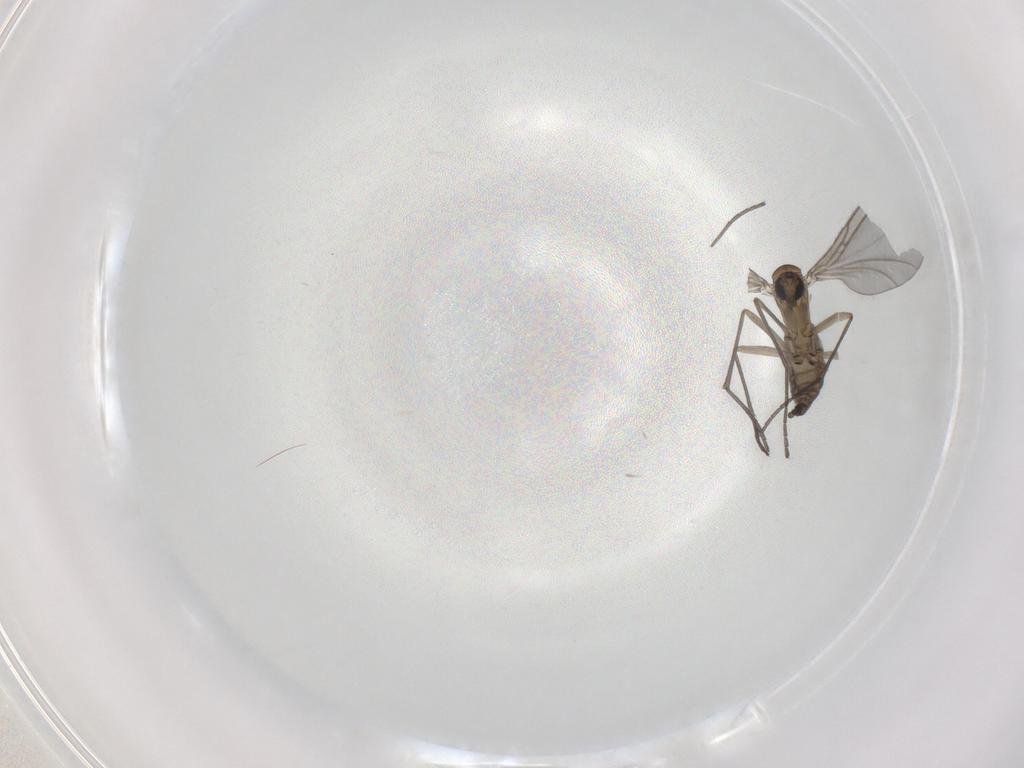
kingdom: Animalia
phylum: Arthropoda
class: Insecta
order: Diptera
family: Sciaridae
